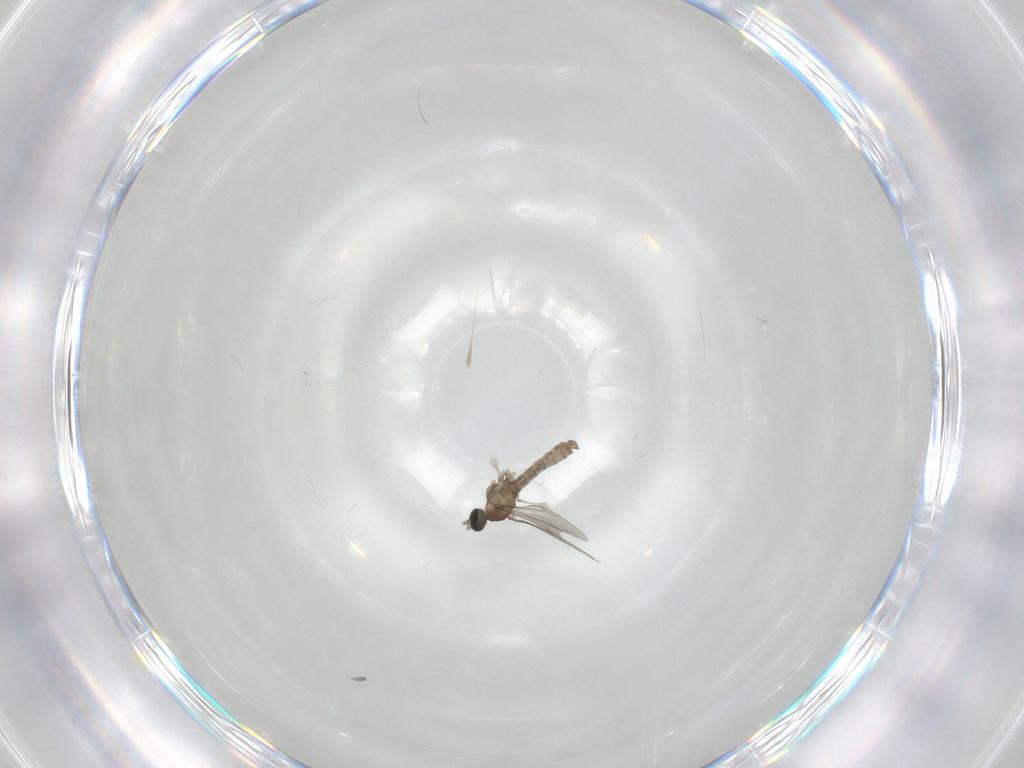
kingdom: Animalia
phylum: Arthropoda
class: Insecta
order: Diptera
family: Cecidomyiidae
